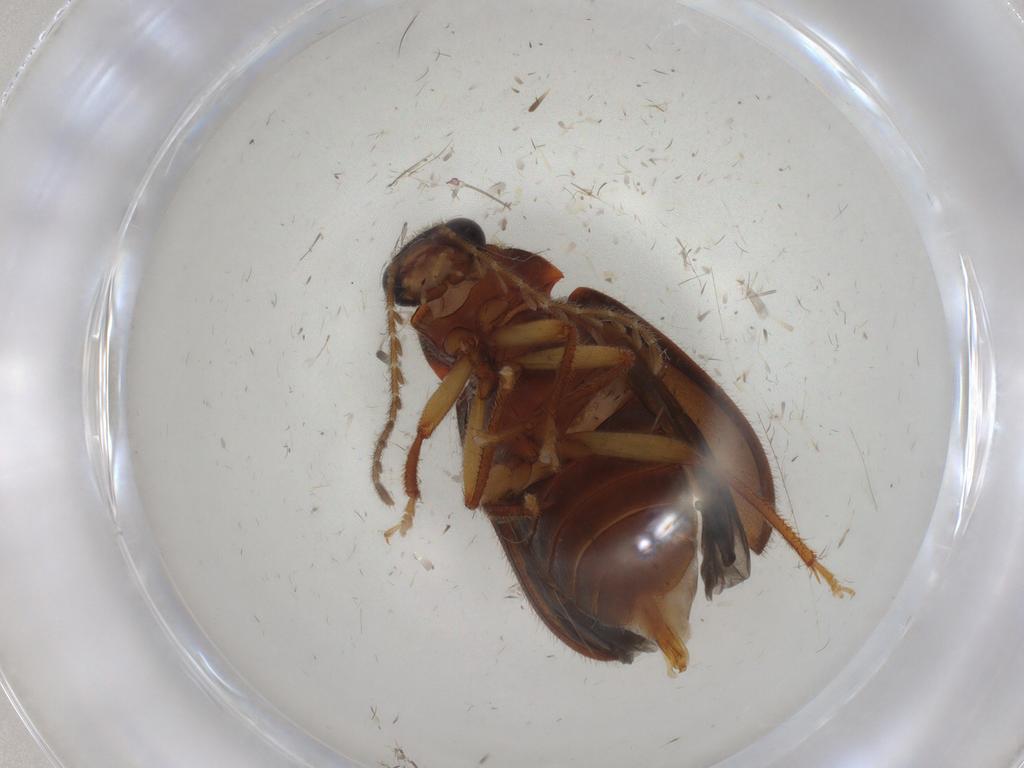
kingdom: Animalia
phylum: Arthropoda
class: Insecta
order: Coleoptera
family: Ptilodactylidae
